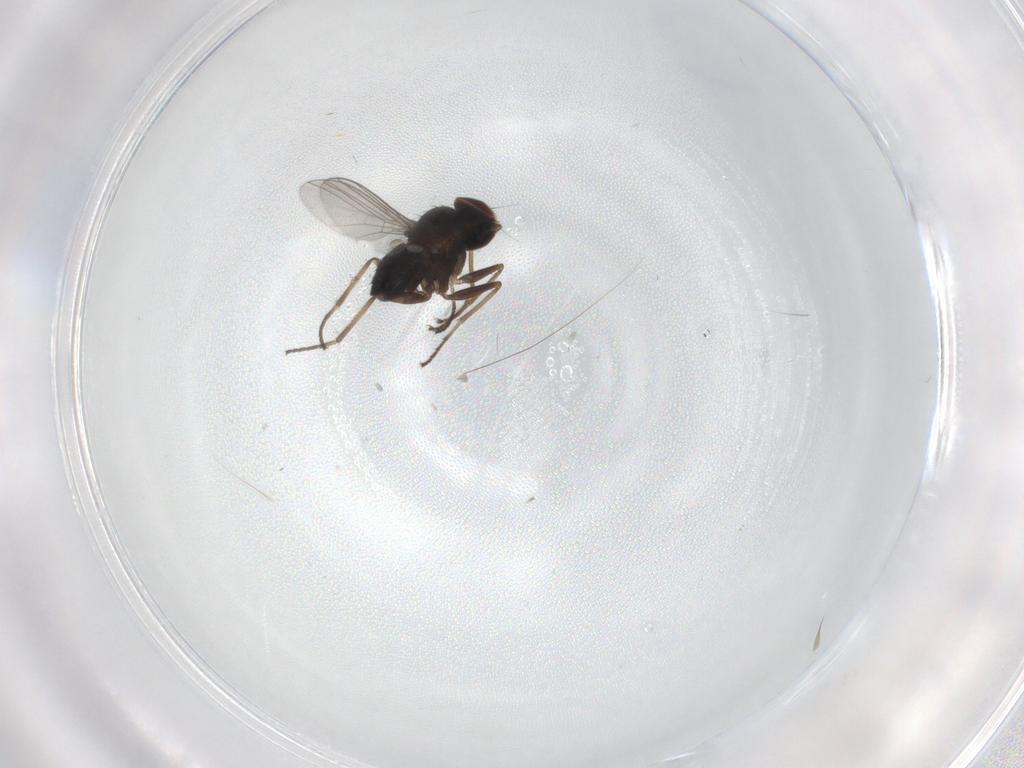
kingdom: Animalia
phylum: Arthropoda
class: Insecta
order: Diptera
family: Dolichopodidae
